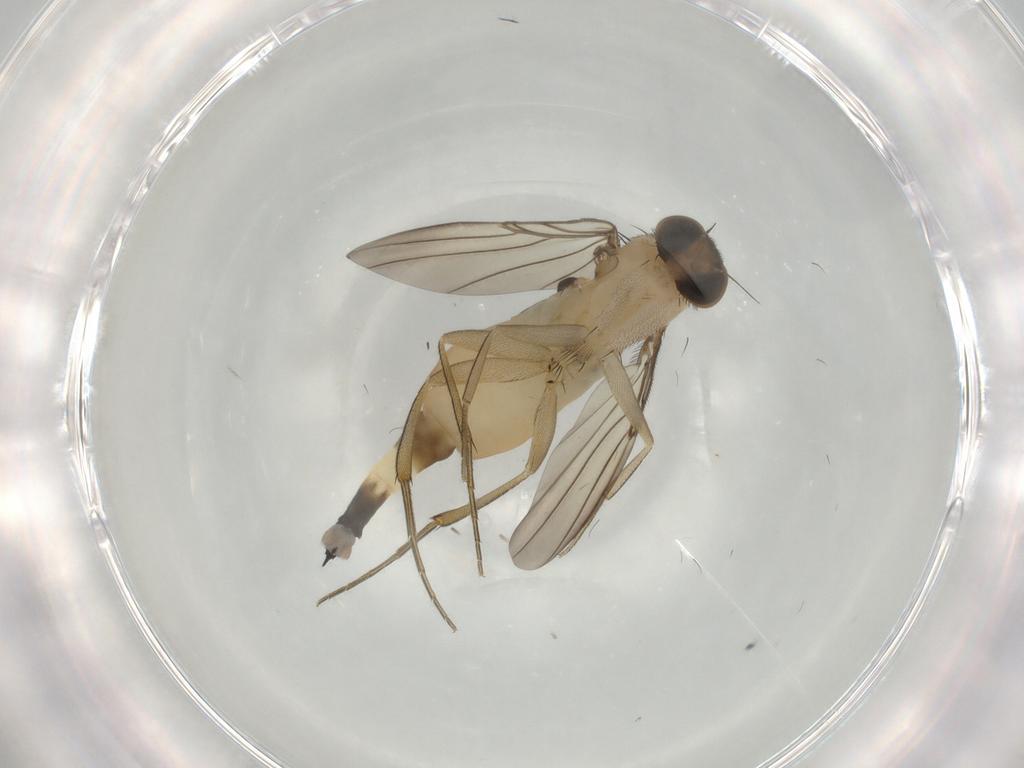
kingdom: Animalia
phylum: Arthropoda
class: Insecta
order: Diptera
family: Phoridae
